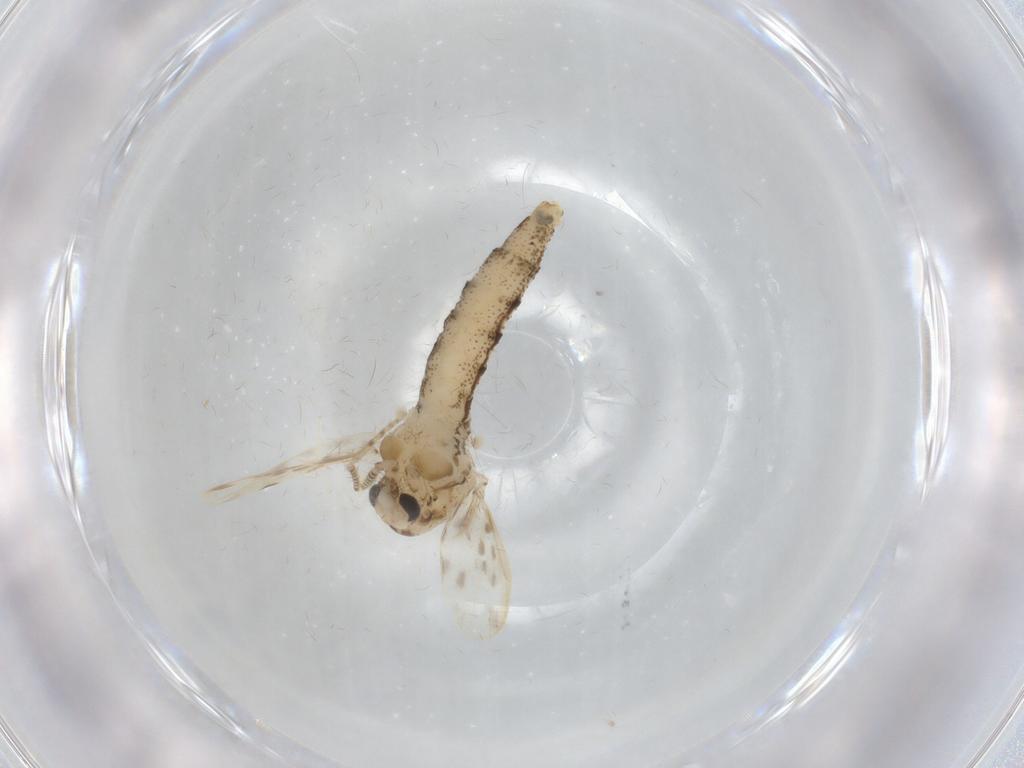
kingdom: Animalia
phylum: Arthropoda
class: Insecta
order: Diptera
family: Chaoboridae
